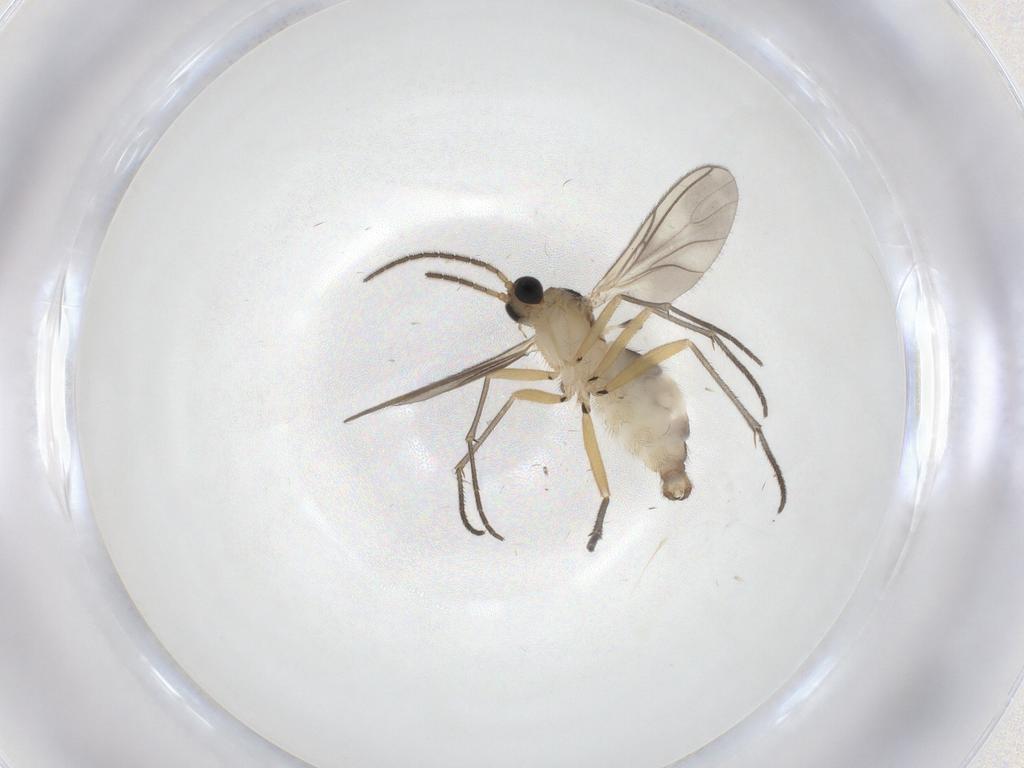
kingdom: Animalia
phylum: Arthropoda
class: Insecta
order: Diptera
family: Sciaridae
